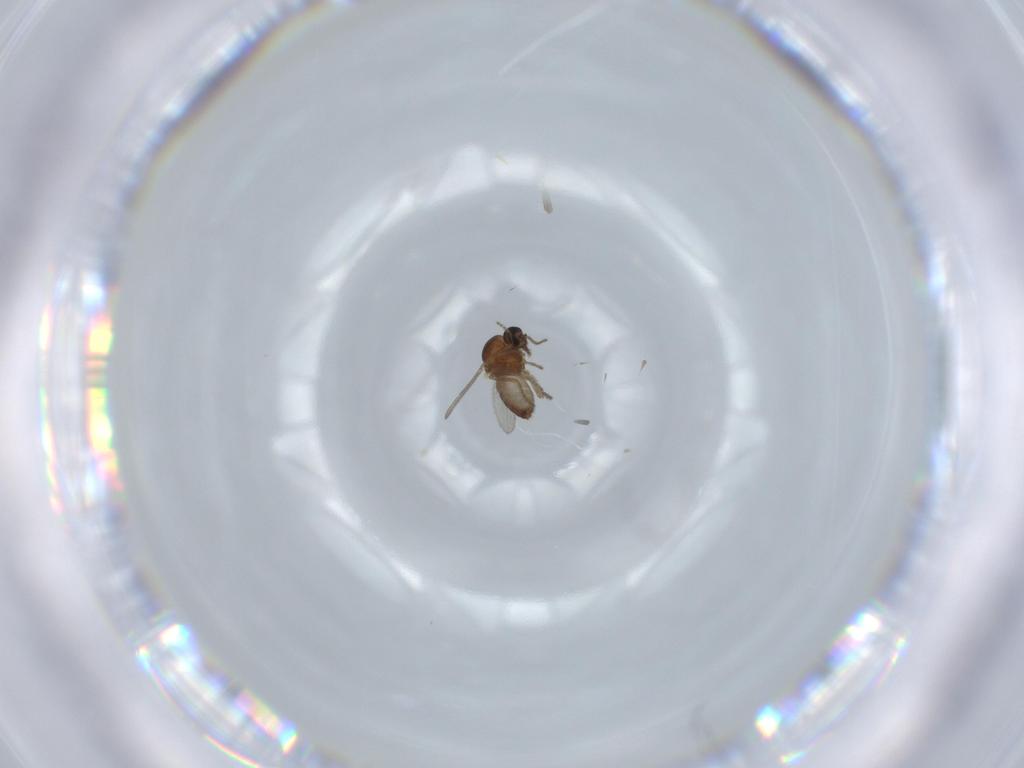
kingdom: Animalia
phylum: Arthropoda
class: Insecta
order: Diptera
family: Ceratopogonidae
